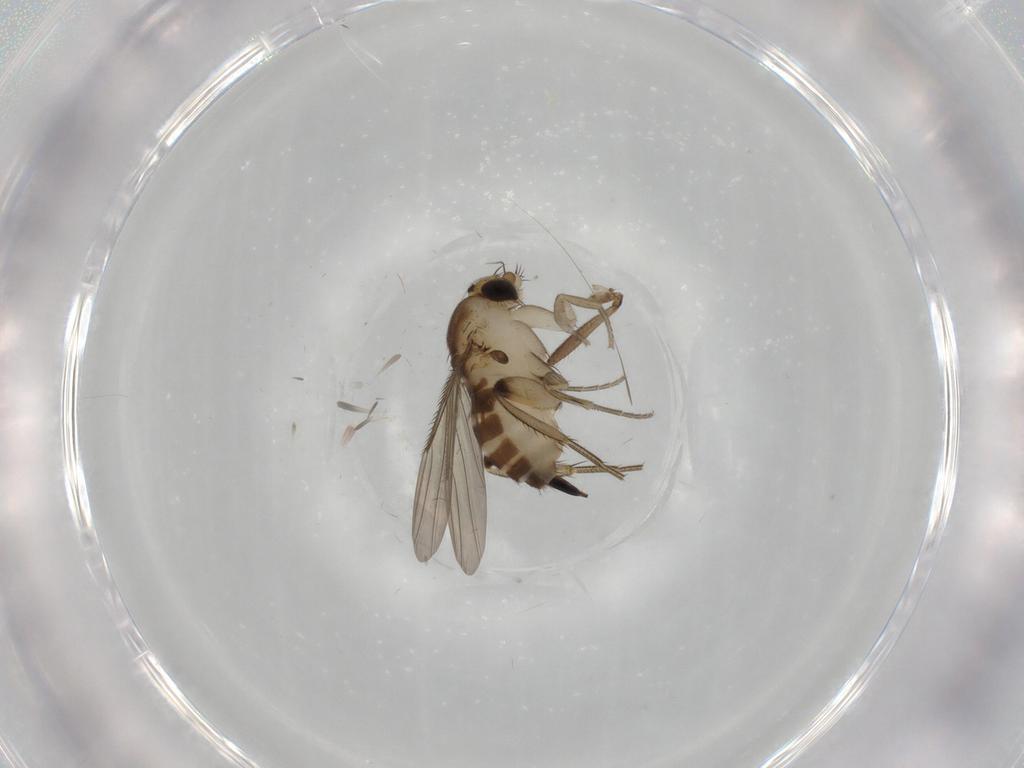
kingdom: Animalia
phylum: Arthropoda
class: Insecta
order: Diptera
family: Phoridae
